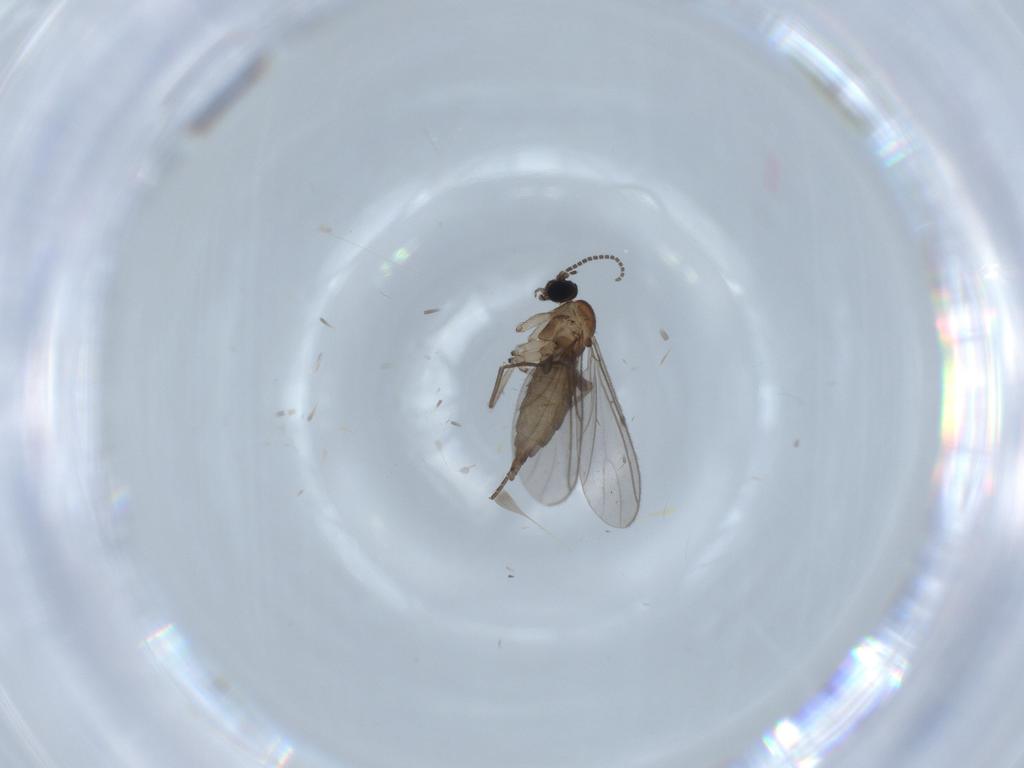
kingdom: Animalia
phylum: Arthropoda
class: Insecta
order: Diptera
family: Sciaridae
